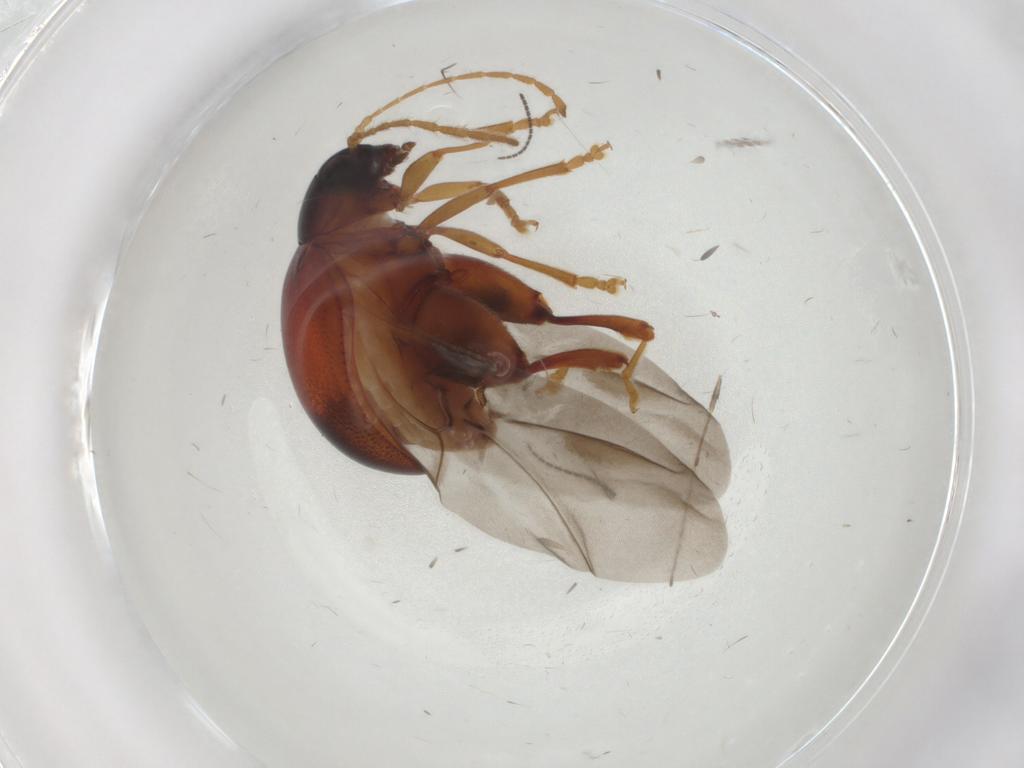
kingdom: Animalia
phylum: Arthropoda
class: Insecta
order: Coleoptera
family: Chrysomelidae
